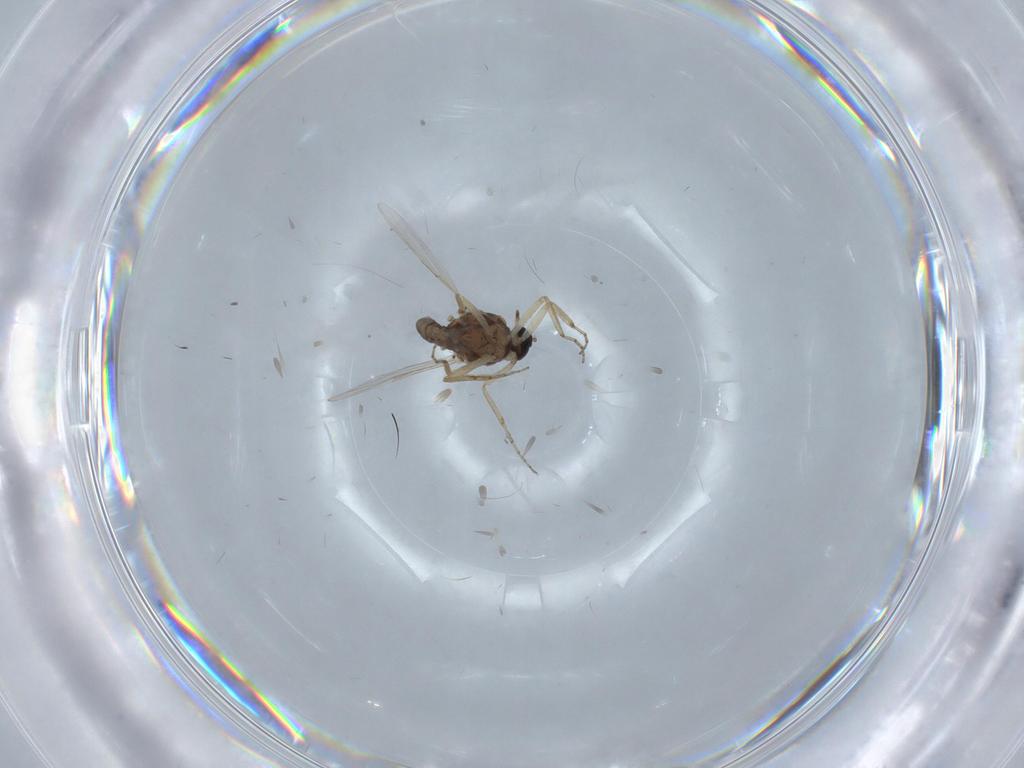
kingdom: Animalia
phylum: Arthropoda
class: Insecta
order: Diptera
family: Ceratopogonidae
